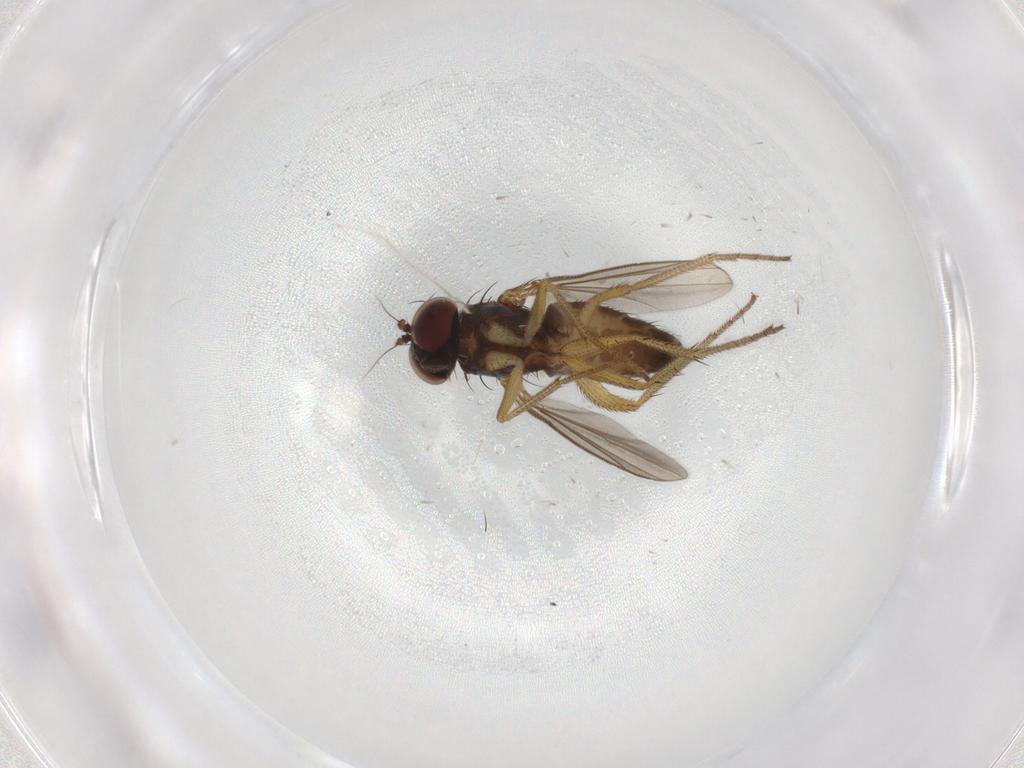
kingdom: Animalia
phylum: Arthropoda
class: Insecta
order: Diptera
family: Dolichopodidae
